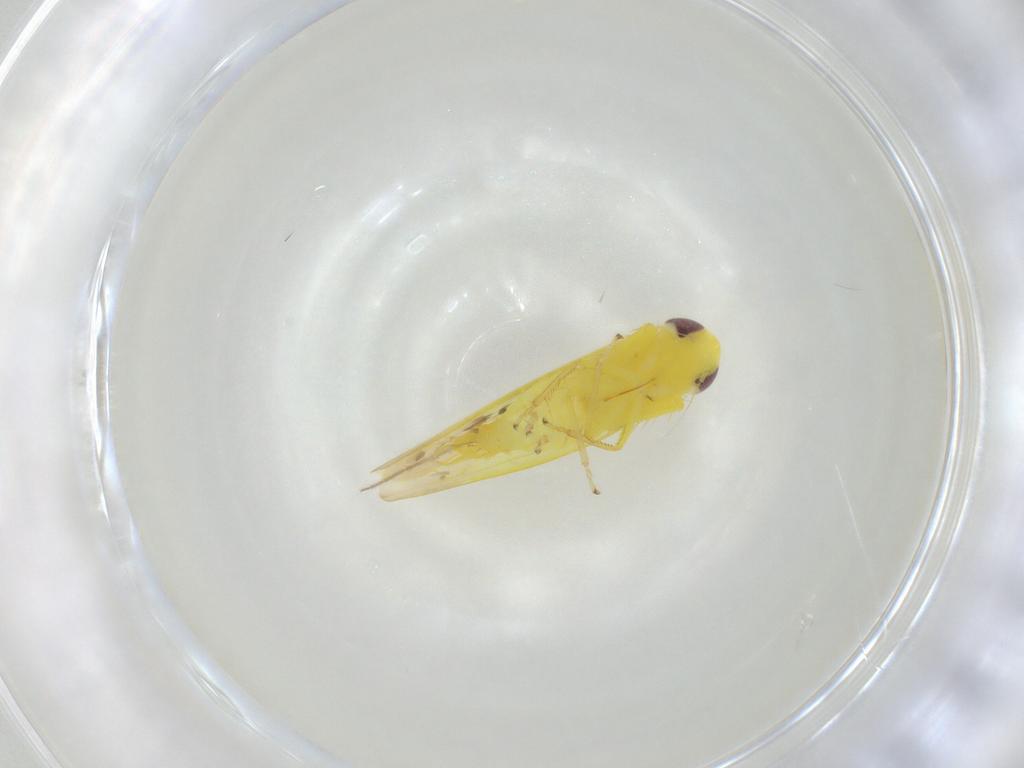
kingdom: Animalia
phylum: Arthropoda
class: Insecta
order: Hemiptera
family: Cicadellidae
